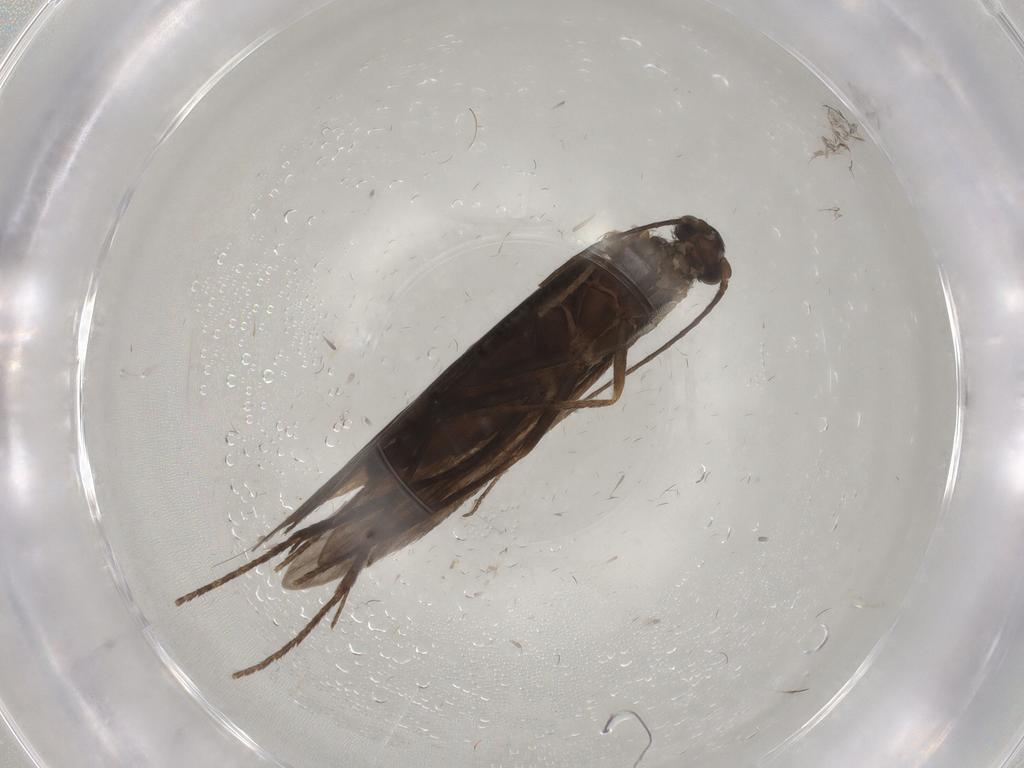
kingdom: Animalia
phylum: Arthropoda
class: Insecta
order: Trichoptera
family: Xiphocentronidae
